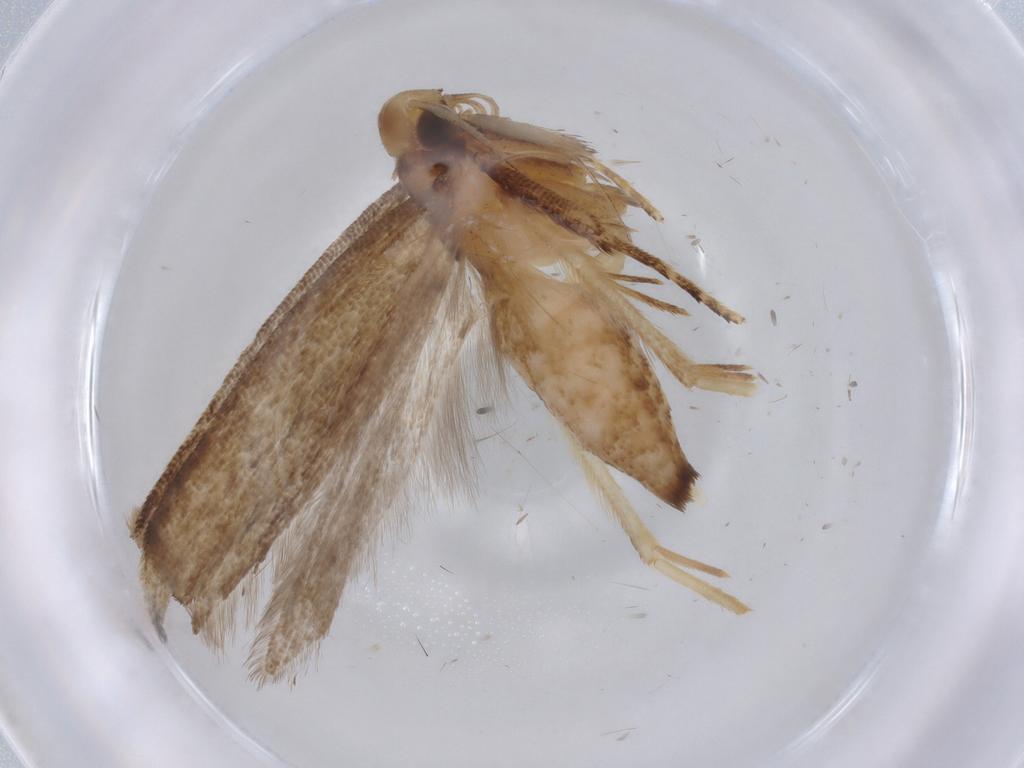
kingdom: Animalia
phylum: Arthropoda
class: Insecta
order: Lepidoptera
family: Gelechiidae
